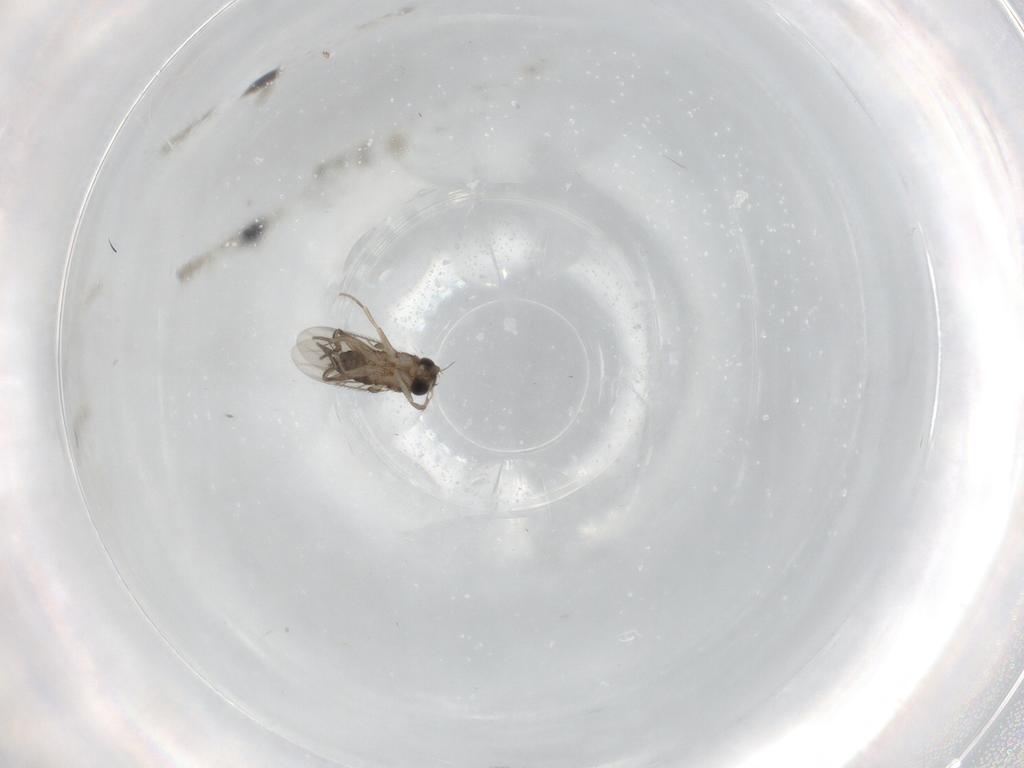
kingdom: Animalia
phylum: Arthropoda
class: Insecta
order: Diptera
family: Phoridae
